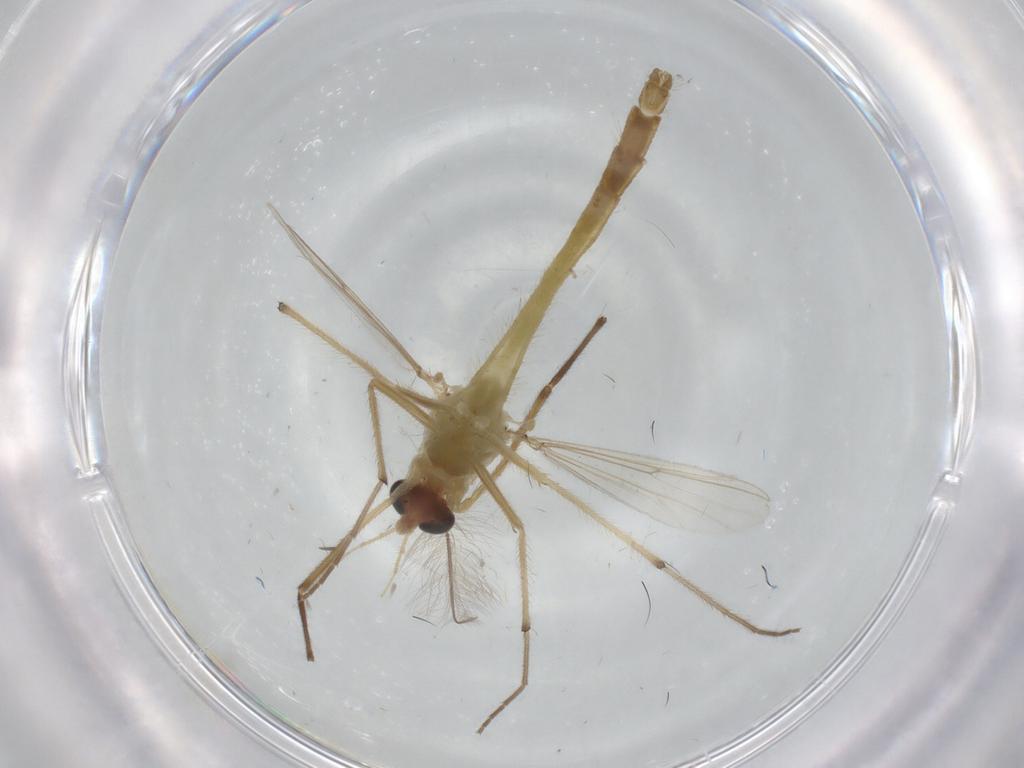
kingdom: Animalia
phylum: Arthropoda
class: Insecta
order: Diptera
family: Chironomidae
